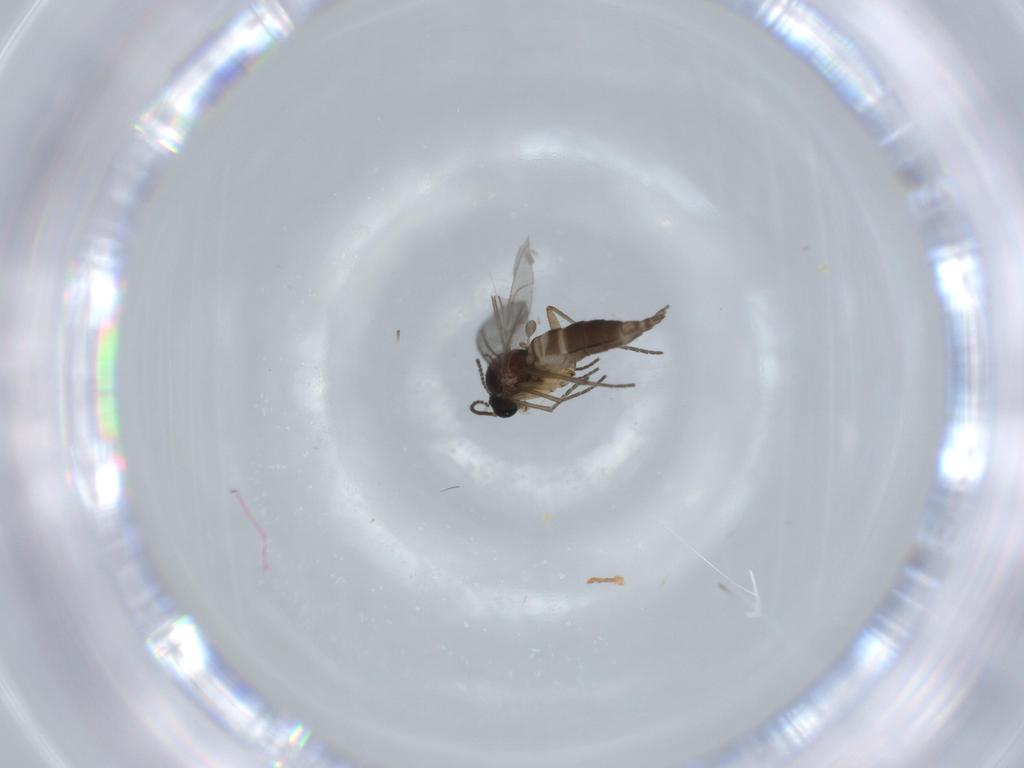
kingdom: Animalia
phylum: Arthropoda
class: Insecta
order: Diptera
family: Sciaridae
